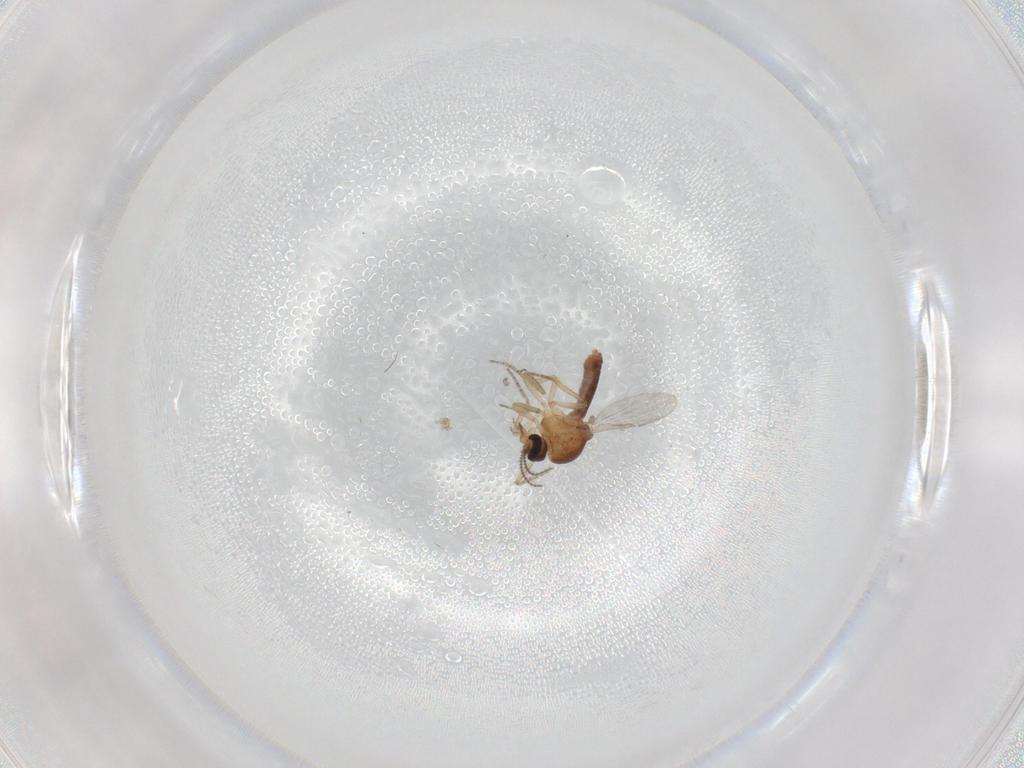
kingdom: Animalia
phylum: Arthropoda
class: Insecta
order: Diptera
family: Ceratopogonidae
